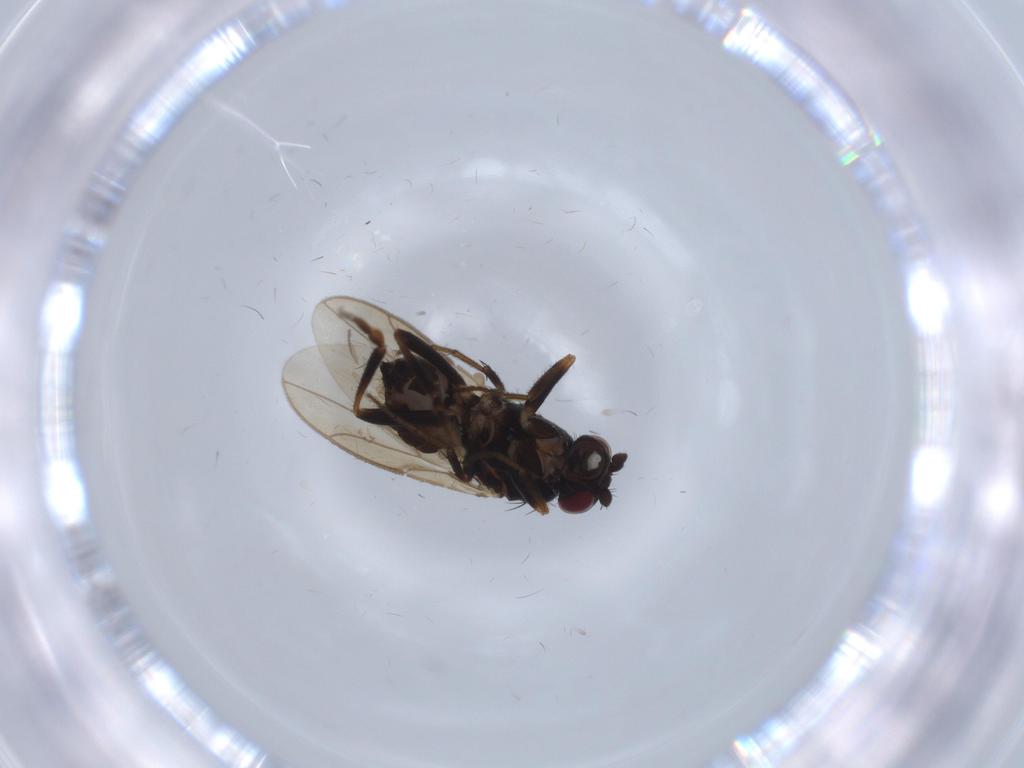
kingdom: Animalia
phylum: Arthropoda
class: Insecta
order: Diptera
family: Sphaeroceridae
